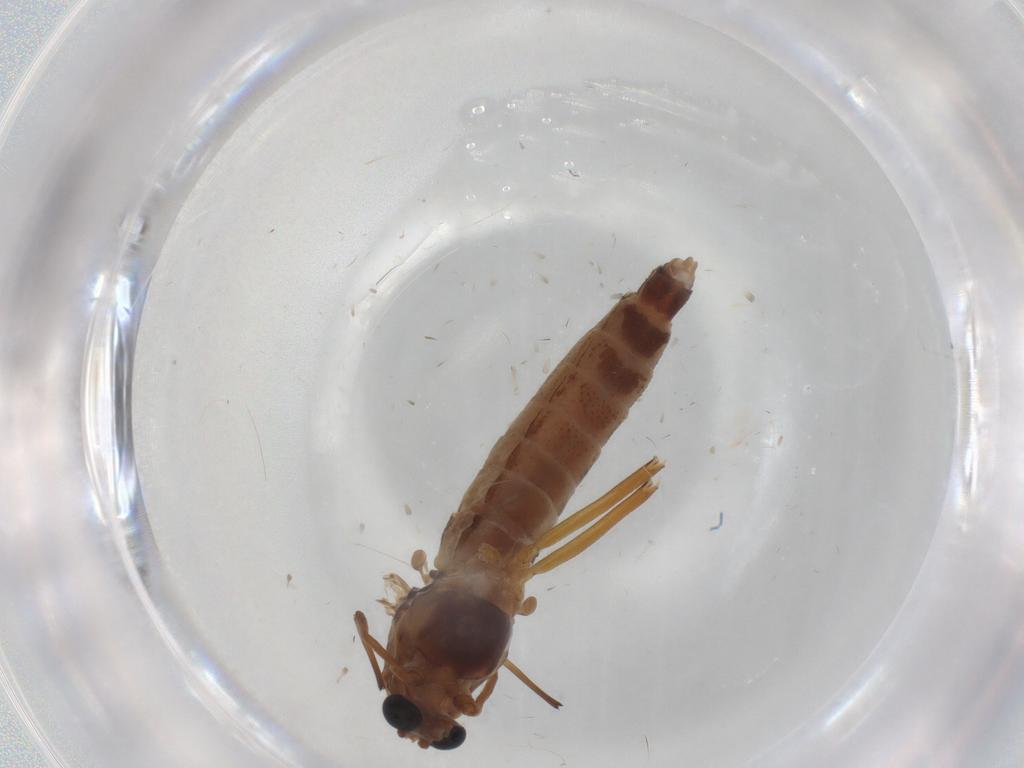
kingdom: Animalia
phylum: Arthropoda
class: Insecta
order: Diptera
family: Chironomidae
